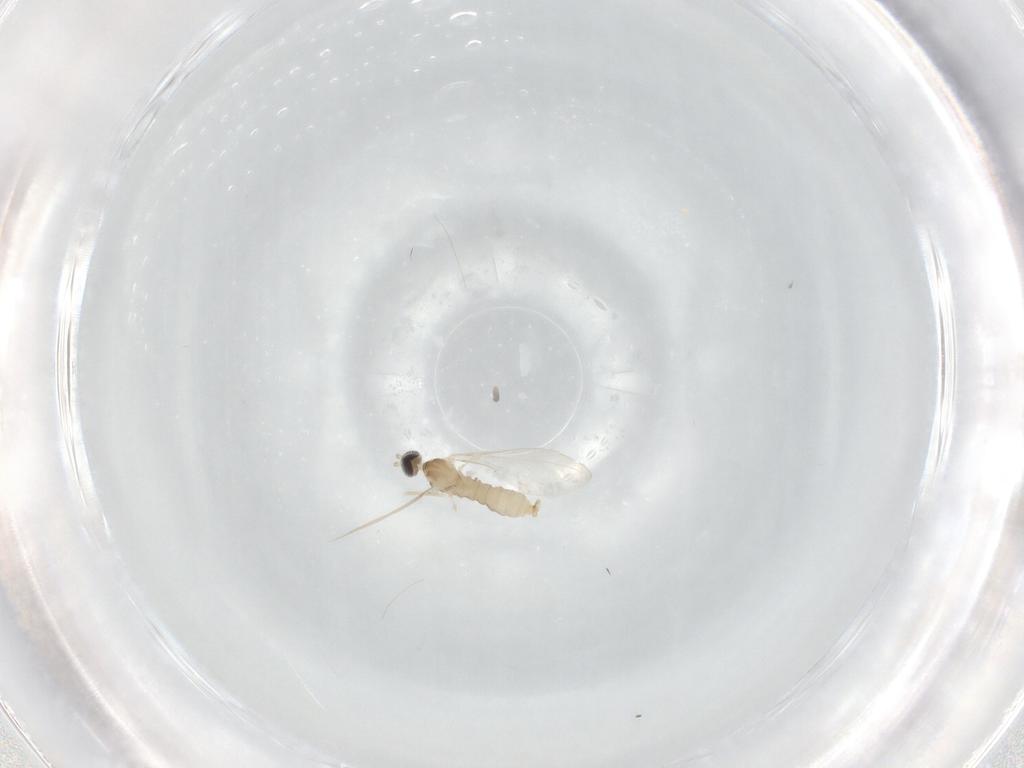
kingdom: Animalia
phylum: Arthropoda
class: Insecta
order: Diptera
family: Cecidomyiidae
